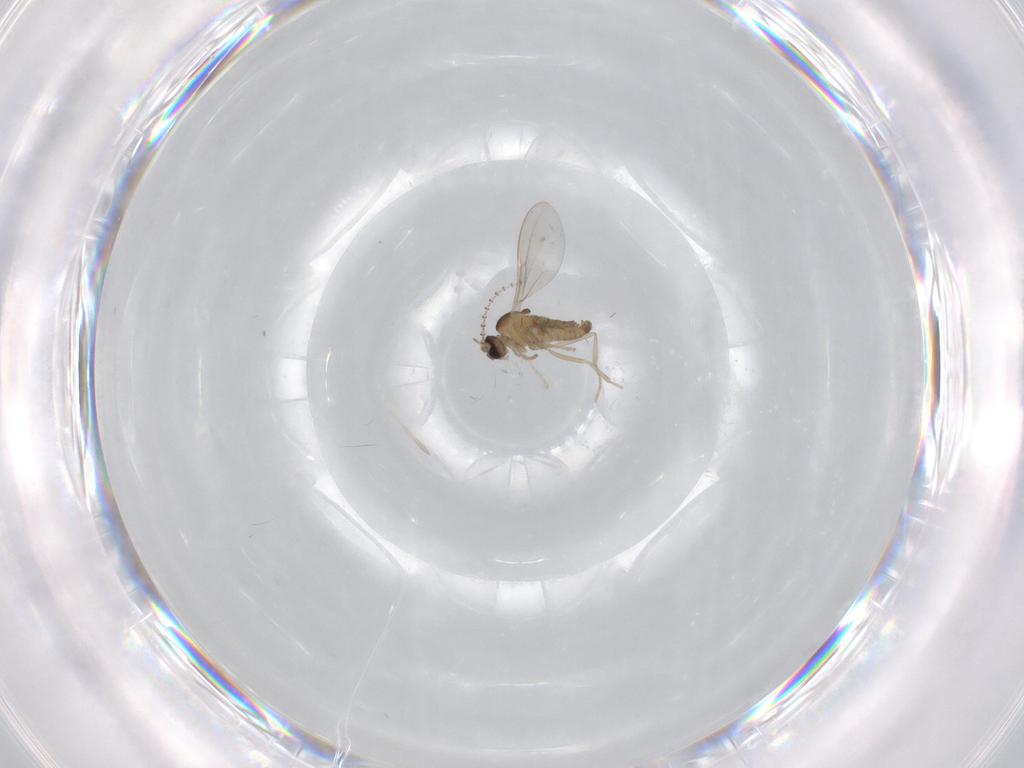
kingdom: Animalia
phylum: Arthropoda
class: Insecta
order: Diptera
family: Cecidomyiidae
